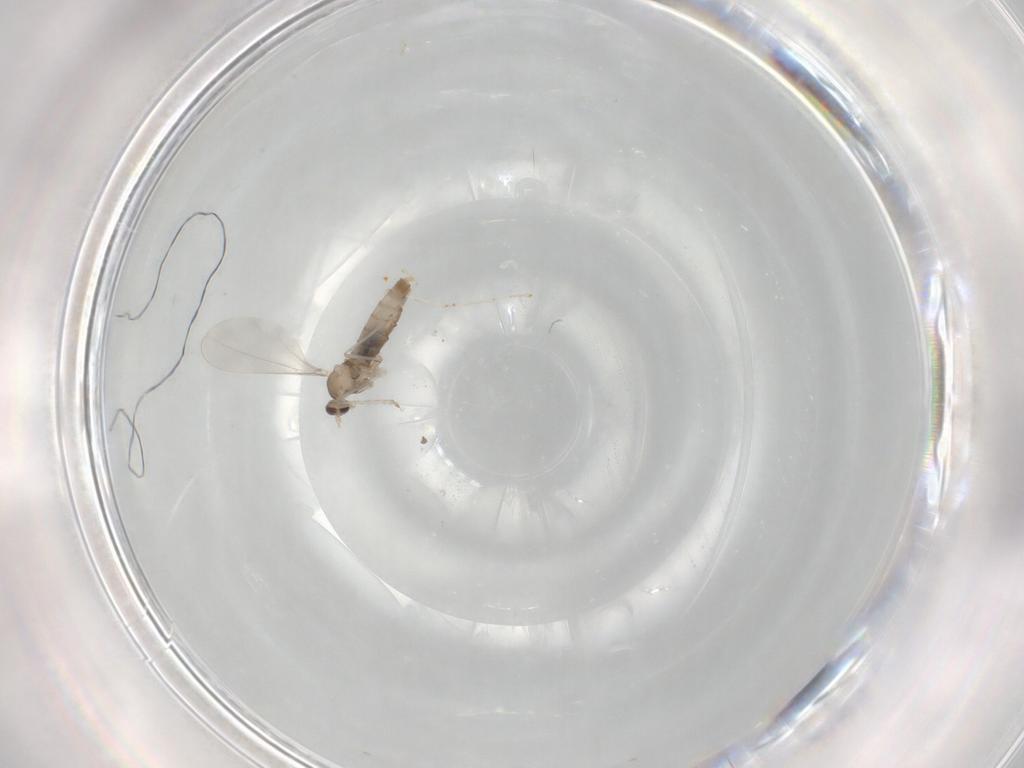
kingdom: Animalia
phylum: Arthropoda
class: Insecta
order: Diptera
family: Cecidomyiidae
